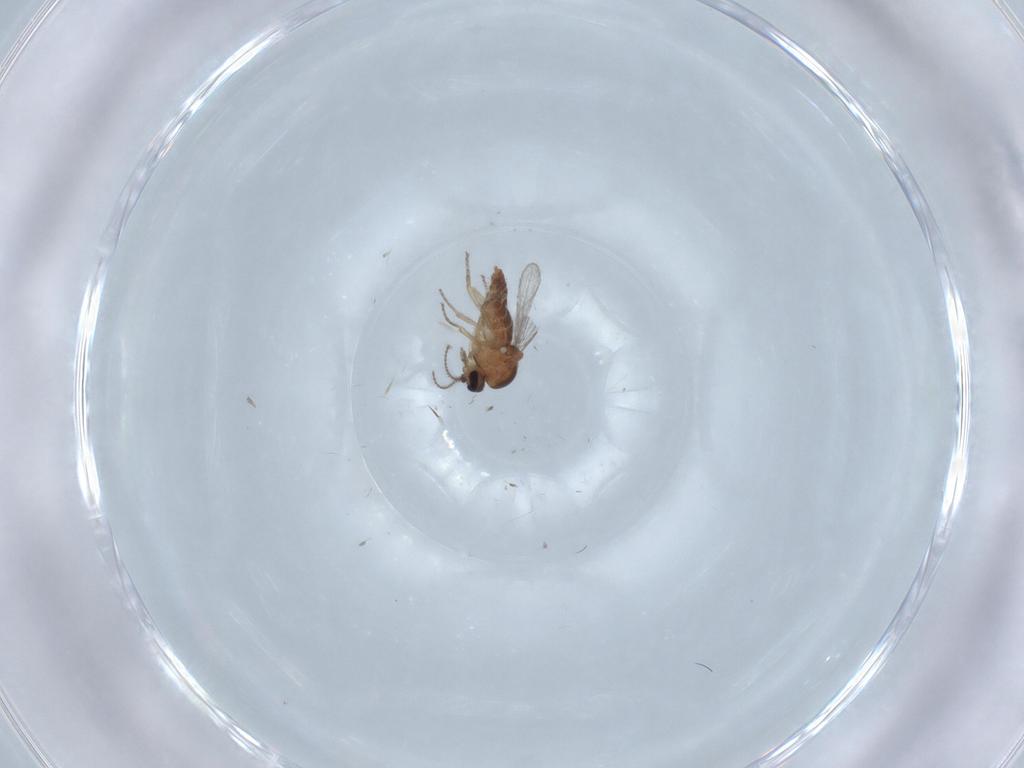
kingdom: Animalia
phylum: Arthropoda
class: Insecta
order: Diptera
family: Ceratopogonidae
